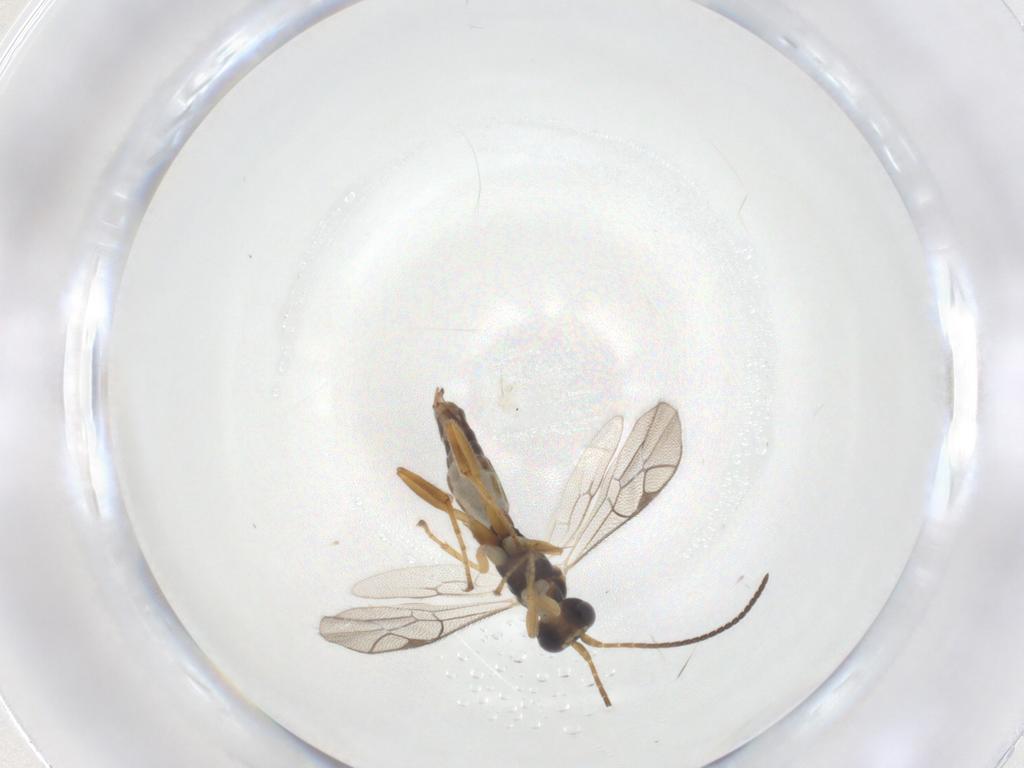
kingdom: Animalia
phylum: Arthropoda
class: Insecta
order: Hymenoptera
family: Ichneumonidae
